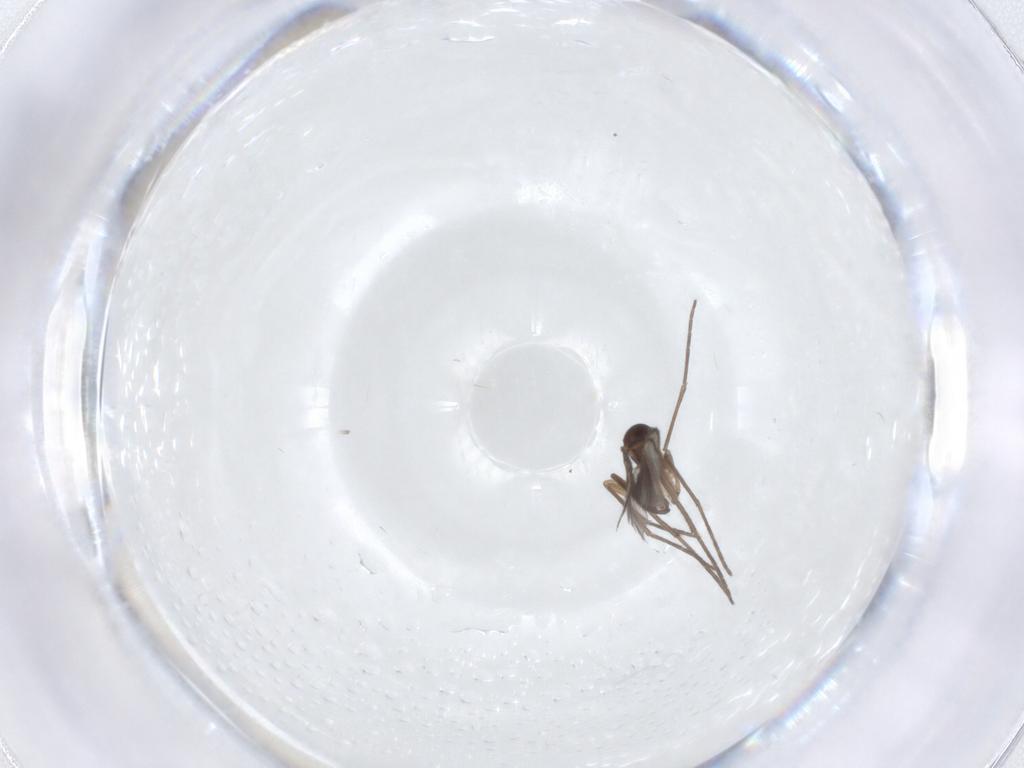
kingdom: Animalia
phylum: Arthropoda
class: Insecta
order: Diptera
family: Sciaridae
